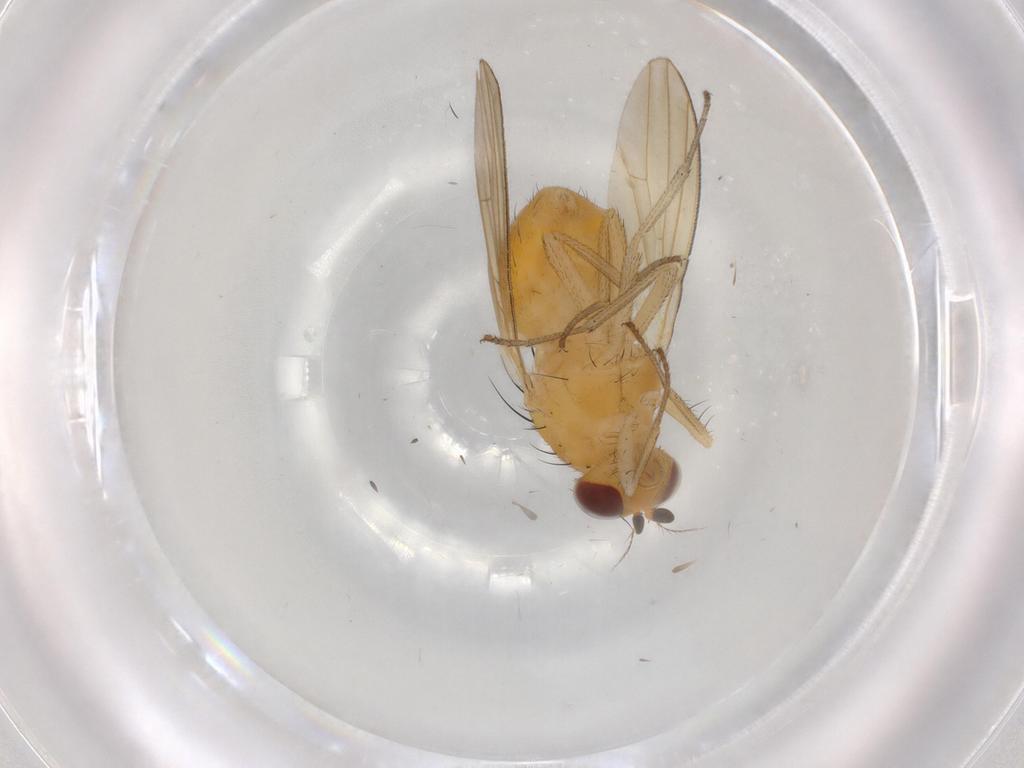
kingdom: Animalia
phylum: Arthropoda
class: Insecta
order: Diptera
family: Lauxaniidae
